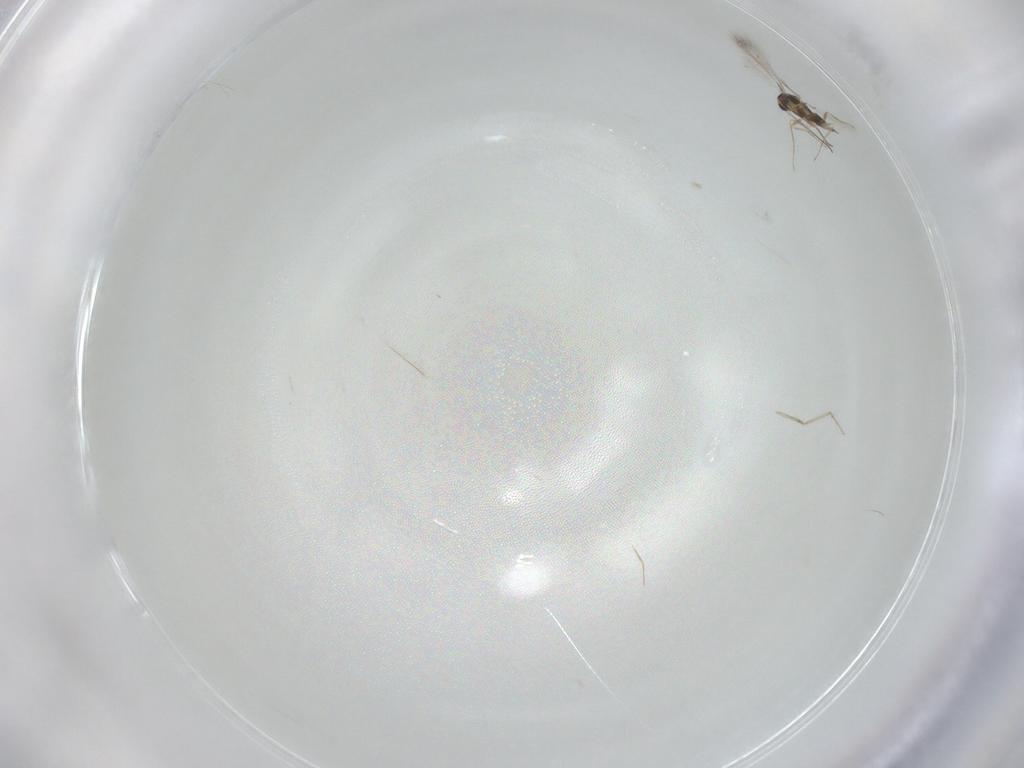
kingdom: Animalia
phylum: Arthropoda
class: Insecta
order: Hymenoptera
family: Mymaridae
